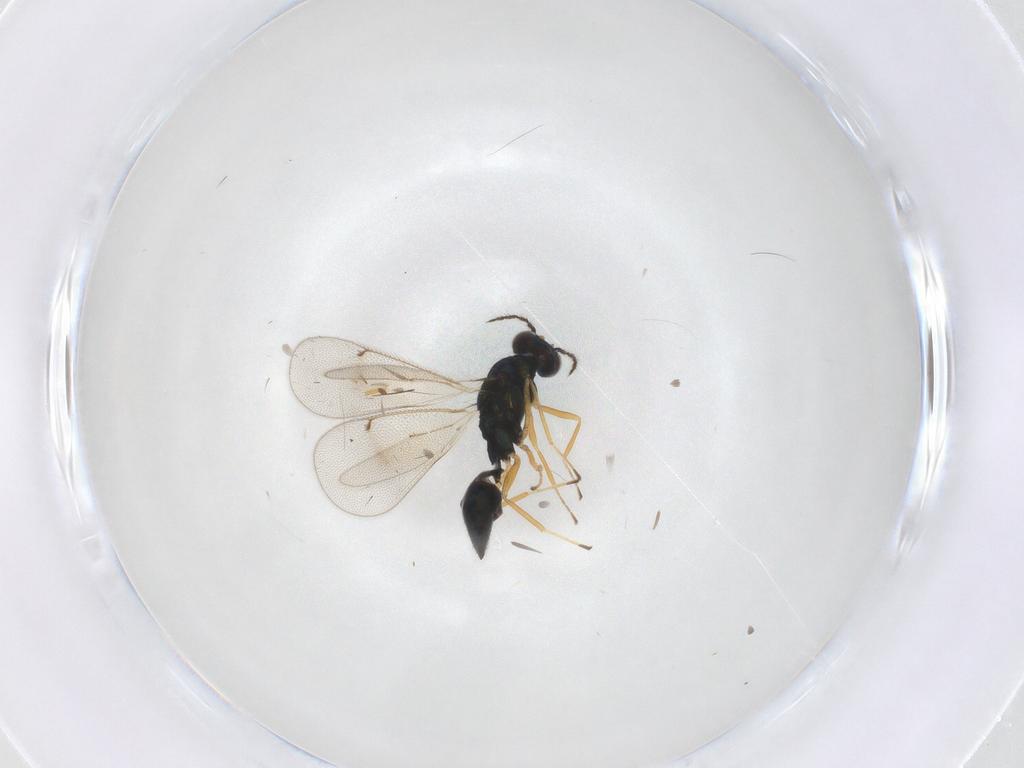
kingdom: Animalia
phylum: Arthropoda
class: Insecta
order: Hymenoptera
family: Eulophidae
